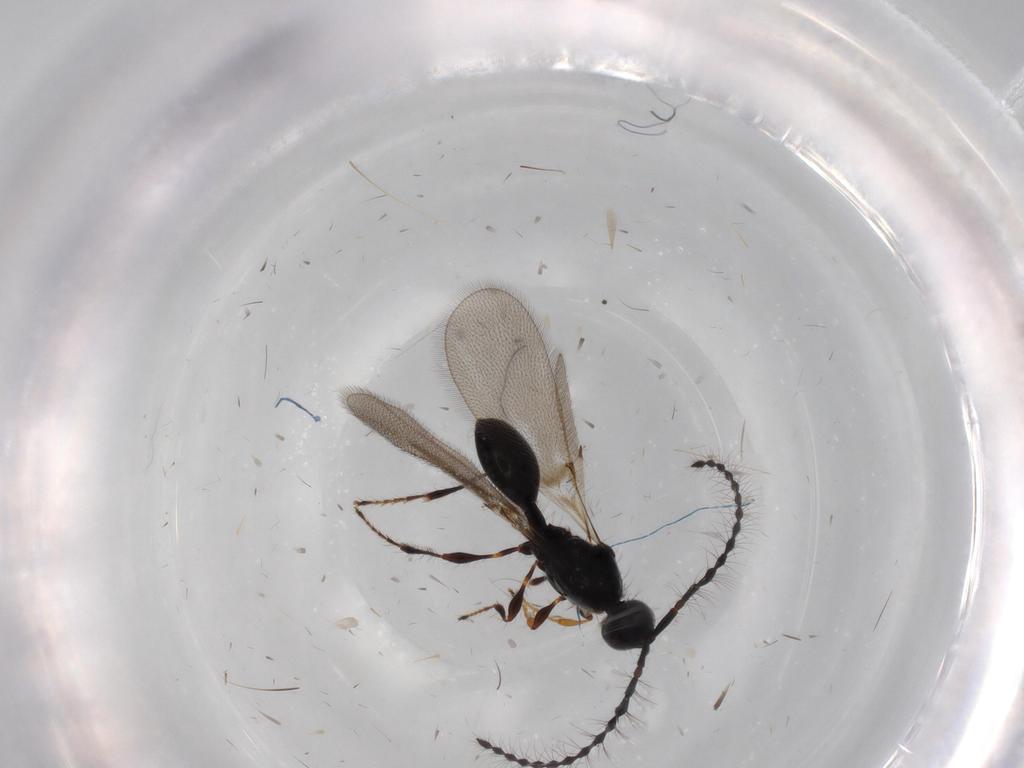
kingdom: Animalia
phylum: Arthropoda
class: Insecta
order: Hymenoptera
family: Diapriidae
